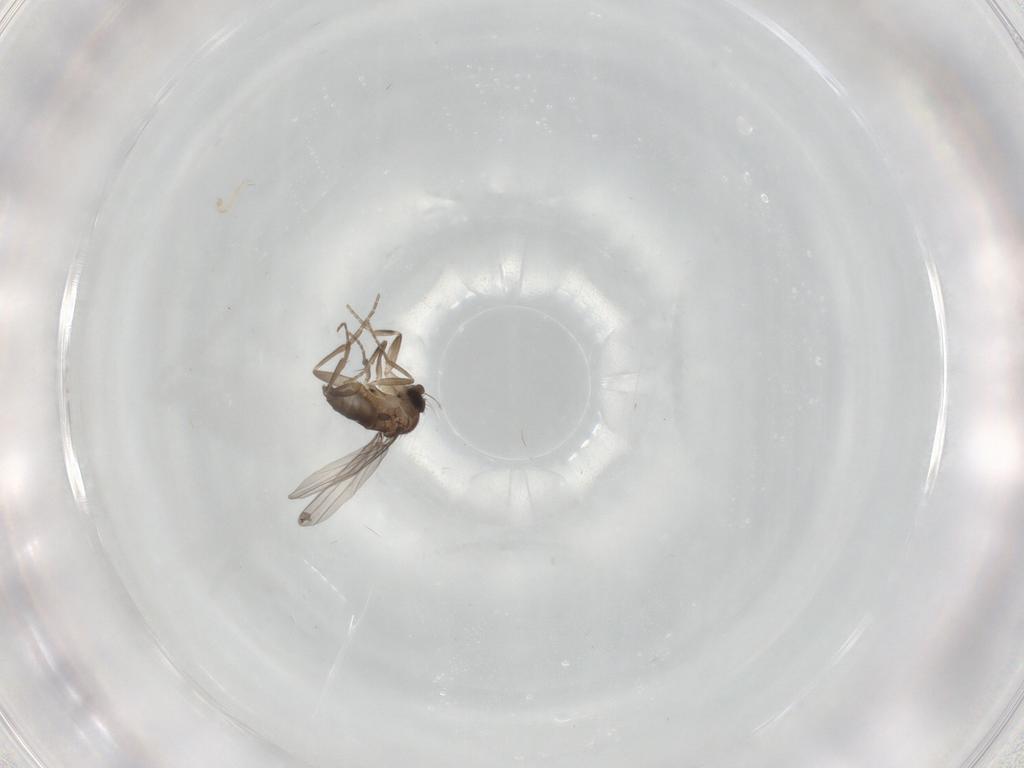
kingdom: Animalia
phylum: Arthropoda
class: Insecta
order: Diptera
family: Phoridae
